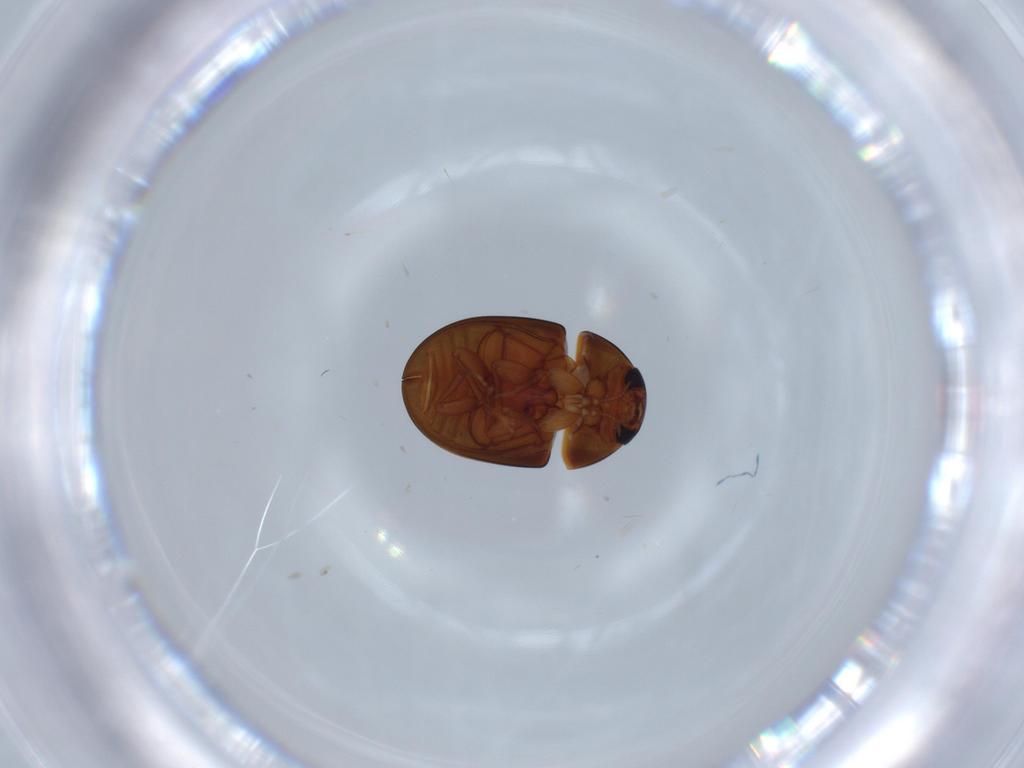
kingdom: Animalia
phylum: Arthropoda
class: Insecta
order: Coleoptera
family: Phalacridae
